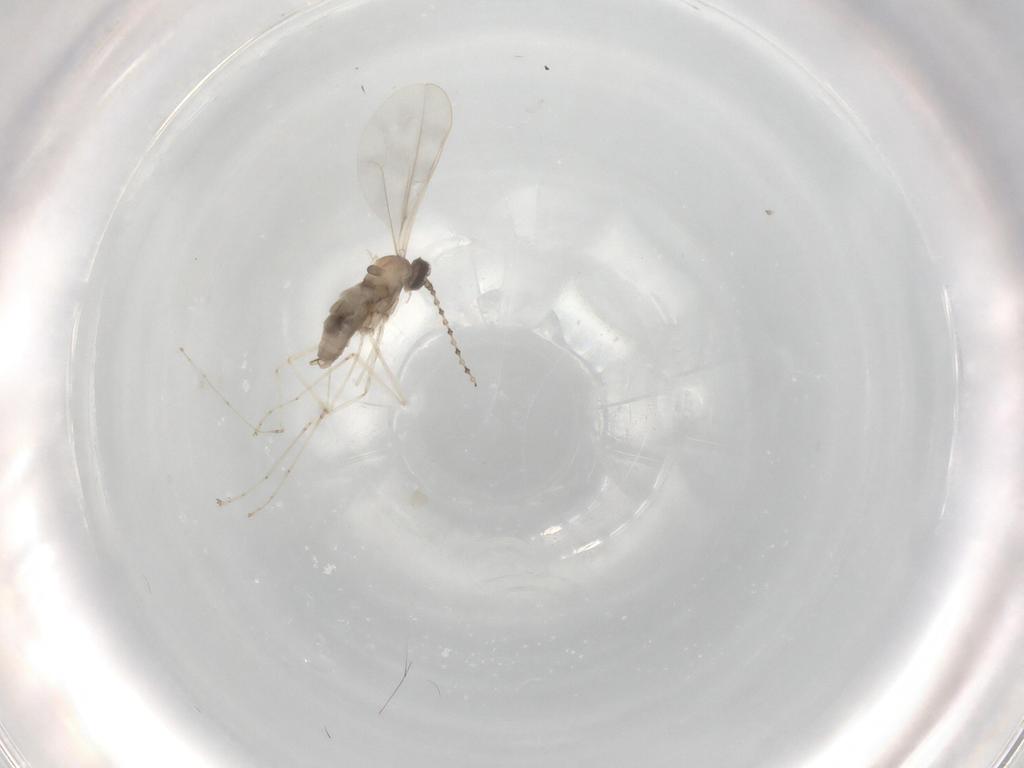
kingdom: Animalia
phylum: Arthropoda
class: Insecta
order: Diptera
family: Cecidomyiidae
